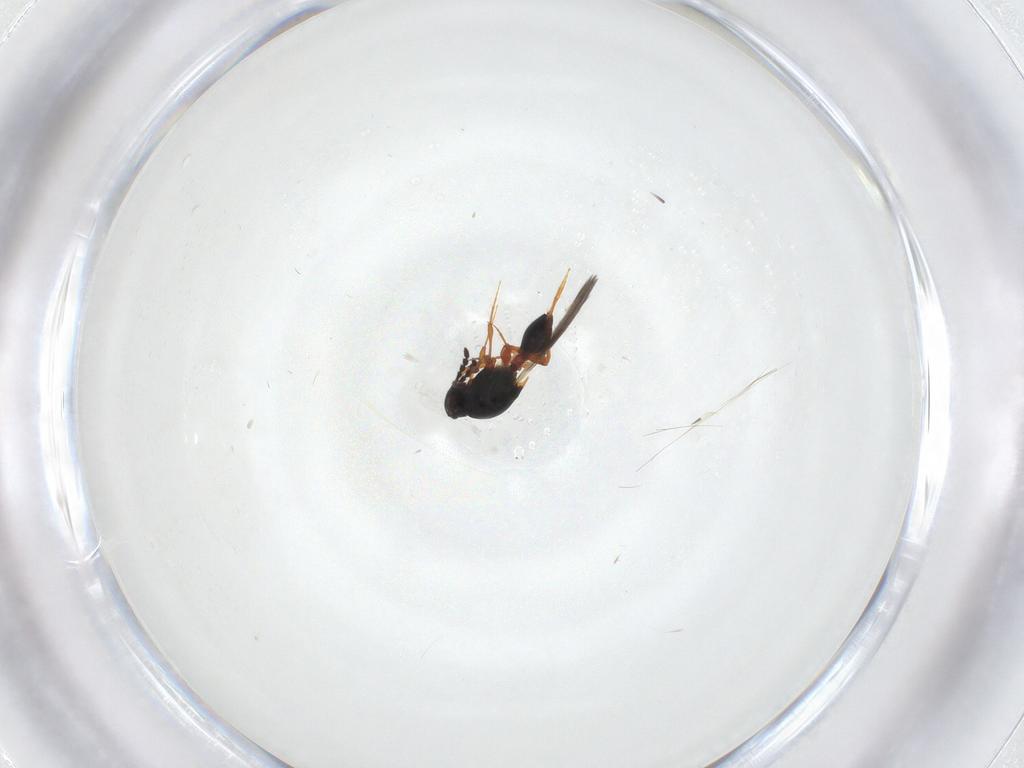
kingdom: Animalia
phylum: Arthropoda
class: Insecta
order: Hymenoptera
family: Platygastridae
